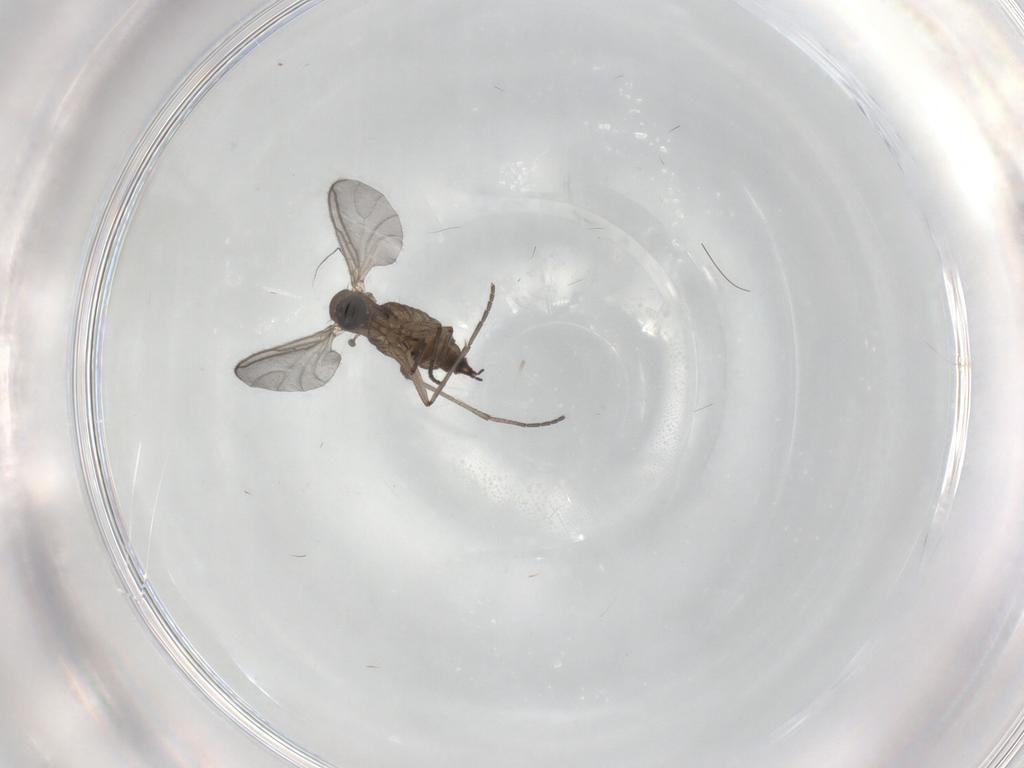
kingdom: Animalia
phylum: Arthropoda
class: Insecta
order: Diptera
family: Sciaridae
